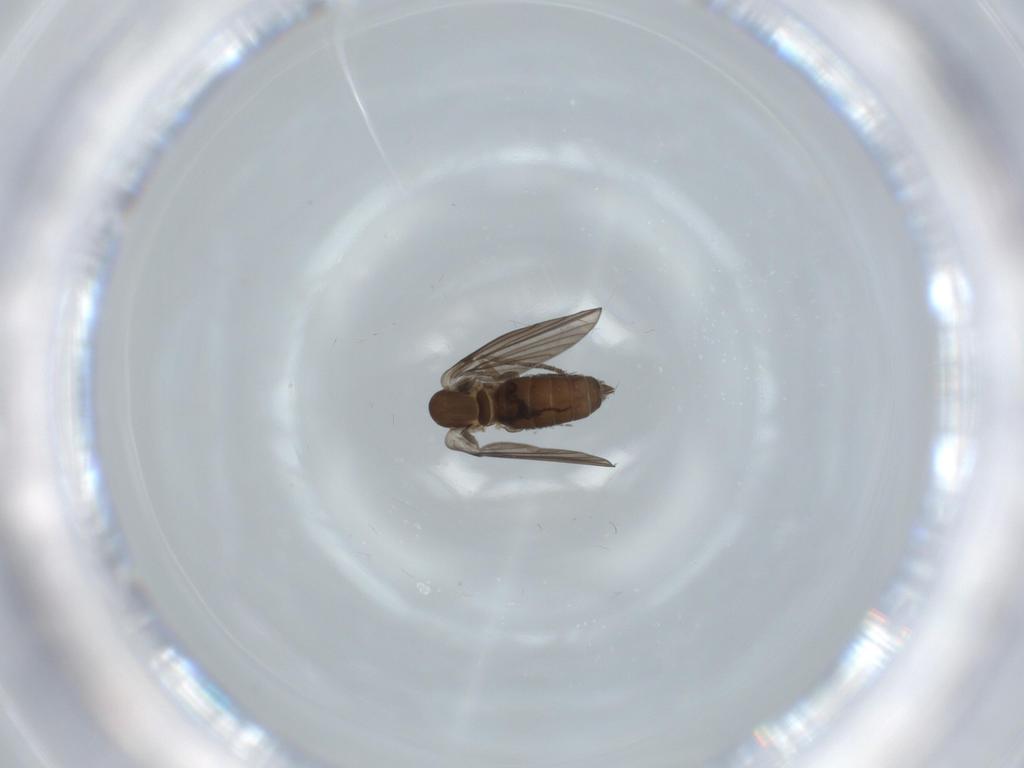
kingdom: Animalia
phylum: Arthropoda
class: Insecta
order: Diptera
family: Psychodidae
